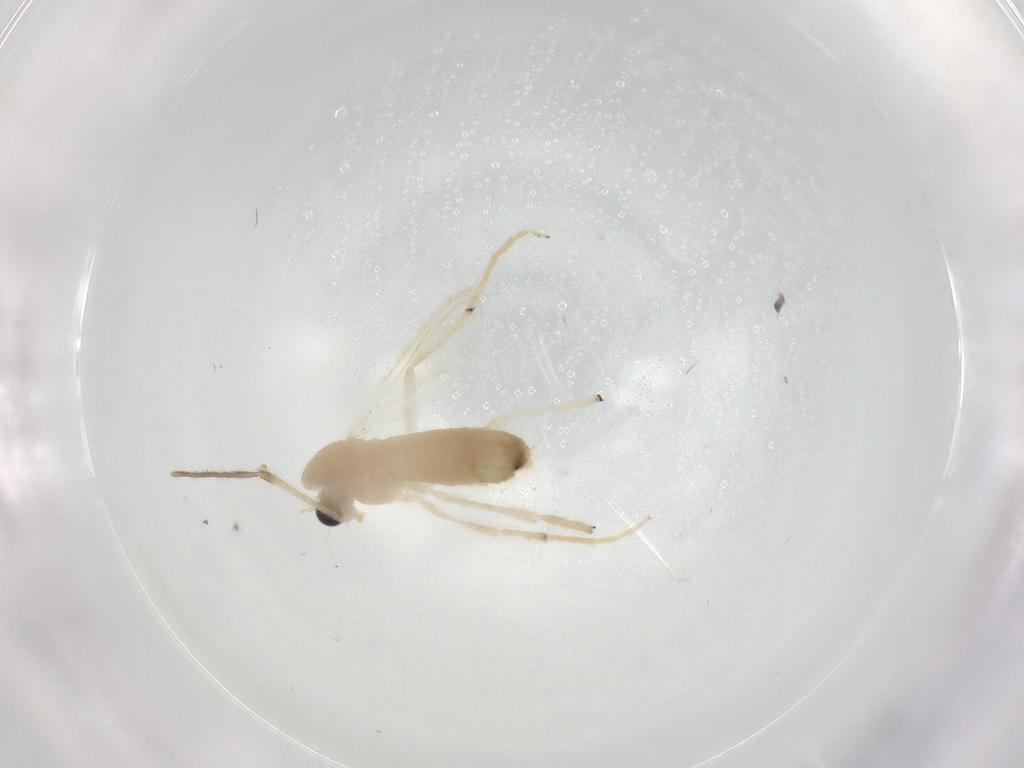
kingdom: Animalia
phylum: Arthropoda
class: Insecta
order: Diptera
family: Chironomidae
